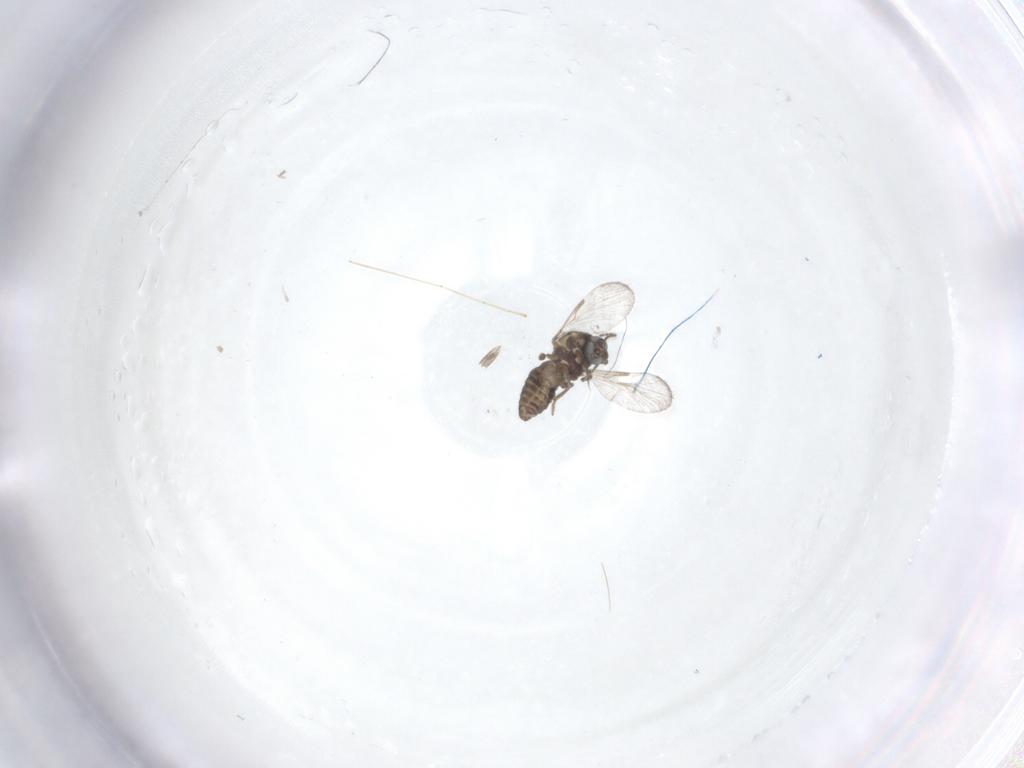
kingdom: Animalia
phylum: Arthropoda
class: Insecta
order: Diptera
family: Ceratopogonidae
